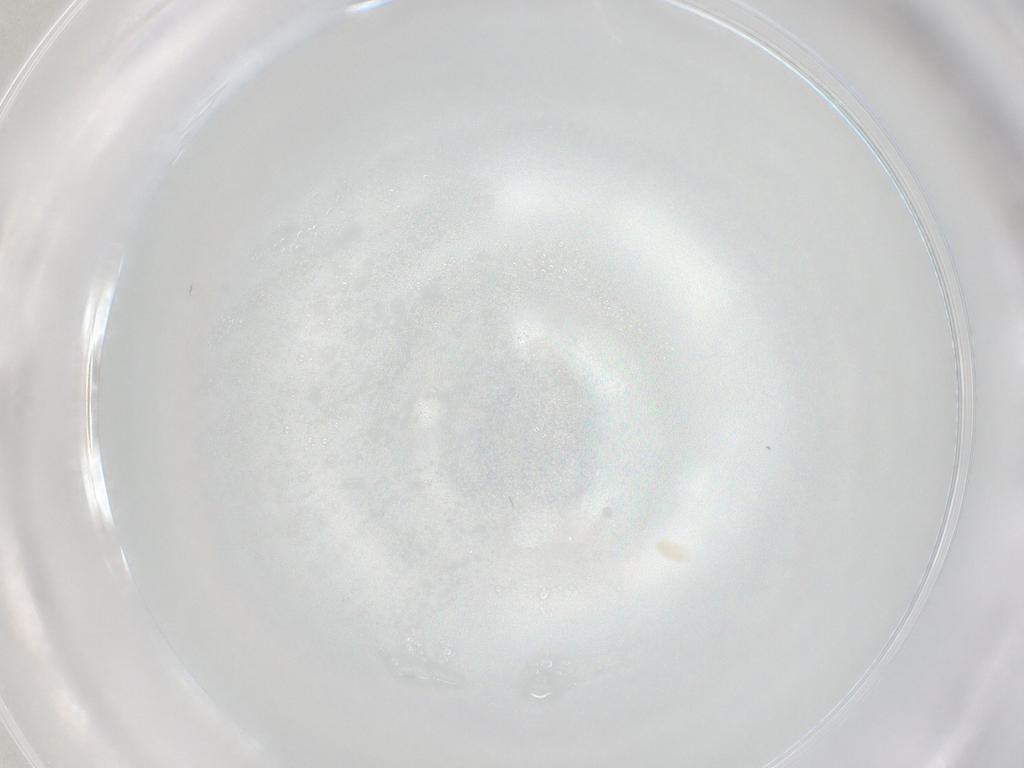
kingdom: Animalia
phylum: Arthropoda
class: Arachnida
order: Trombidiformes
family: Eupodidae
